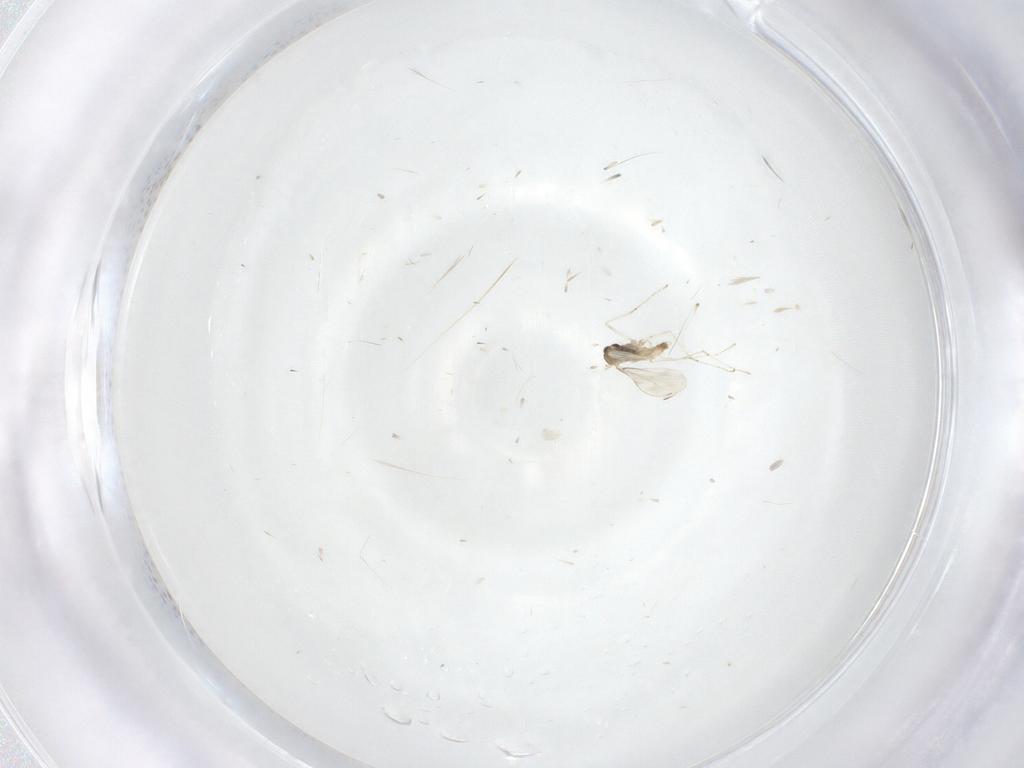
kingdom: Animalia
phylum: Arthropoda
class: Insecta
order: Diptera
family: Cecidomyiidae
